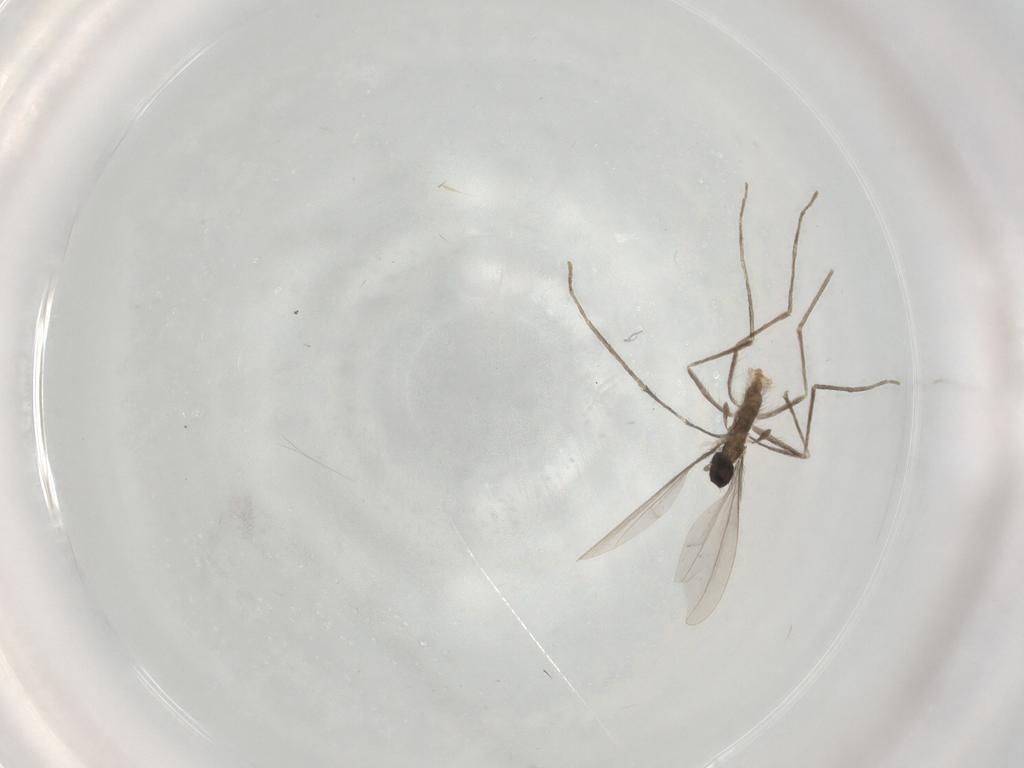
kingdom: Animalia
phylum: Arthropoda
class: Insecta
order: Diptera
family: Cecidomyiidae
